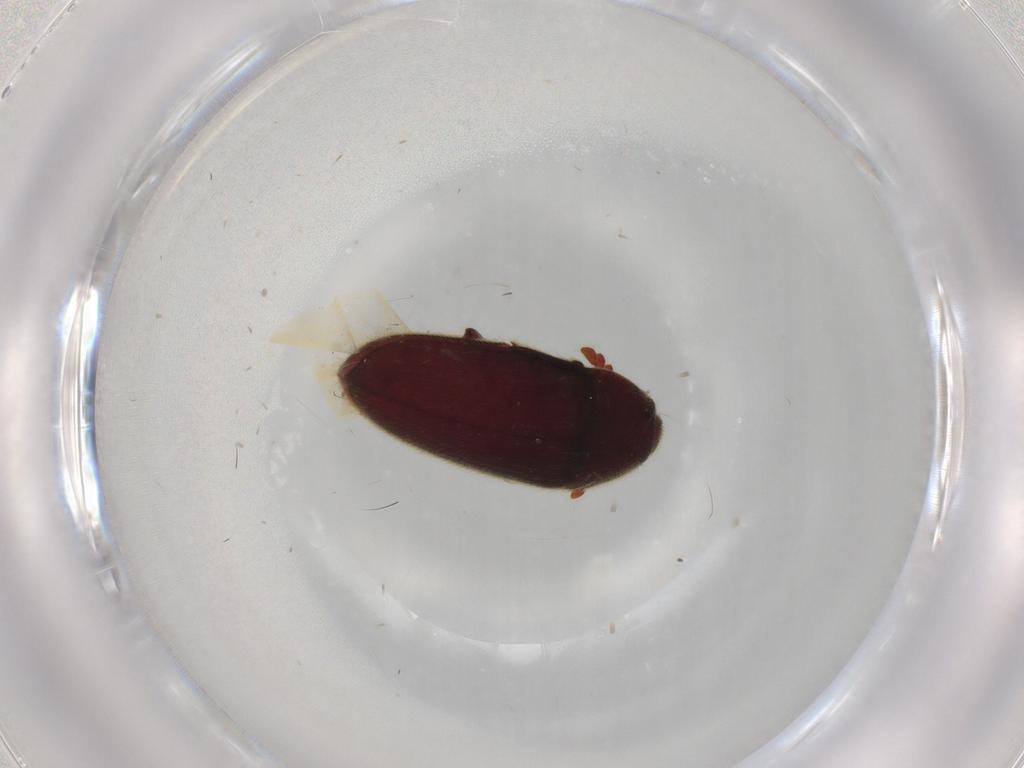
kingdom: Animalia
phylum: Arthropoda
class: Insecta
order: Coleoptera
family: Throscidae
